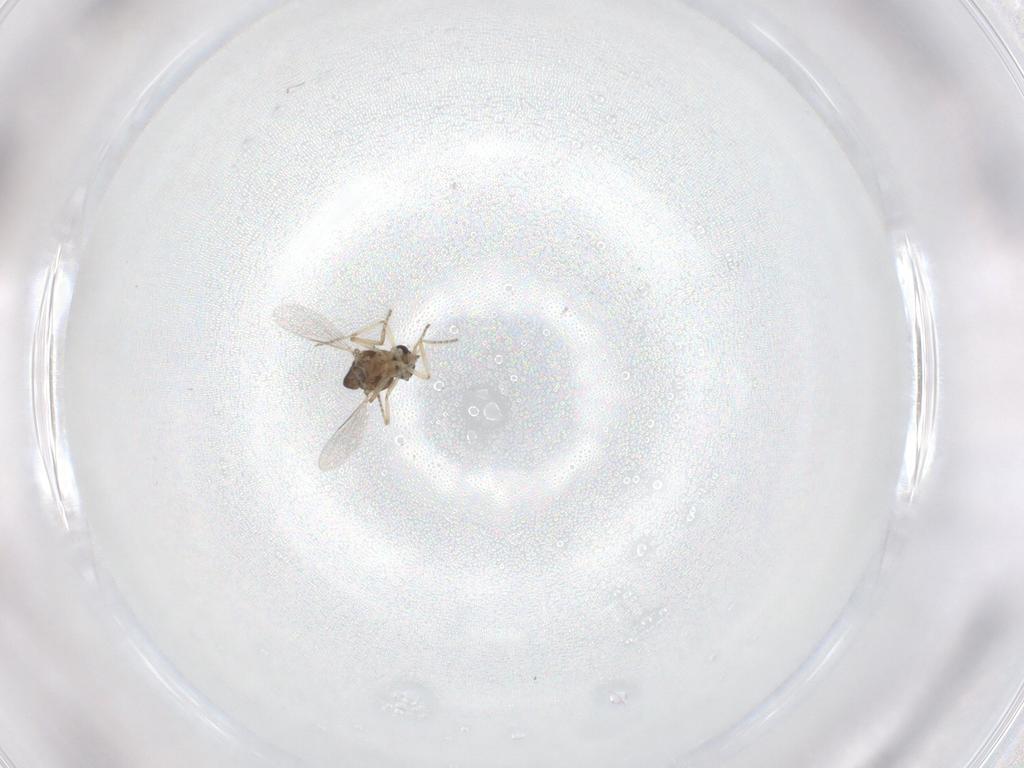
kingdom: Animalia
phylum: Arthropoda
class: Insecta
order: Diptera
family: Ceratopogonidae
